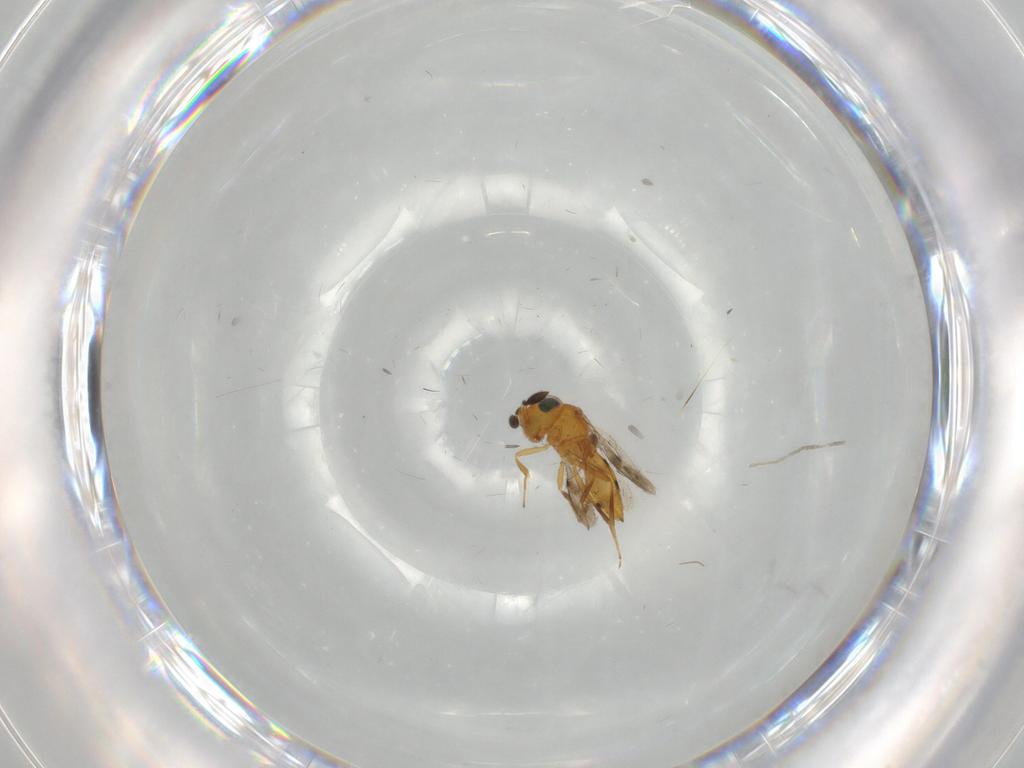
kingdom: Animalia
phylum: Arthropoda
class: Insecta
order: Hymenoptera
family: Scelionidae
